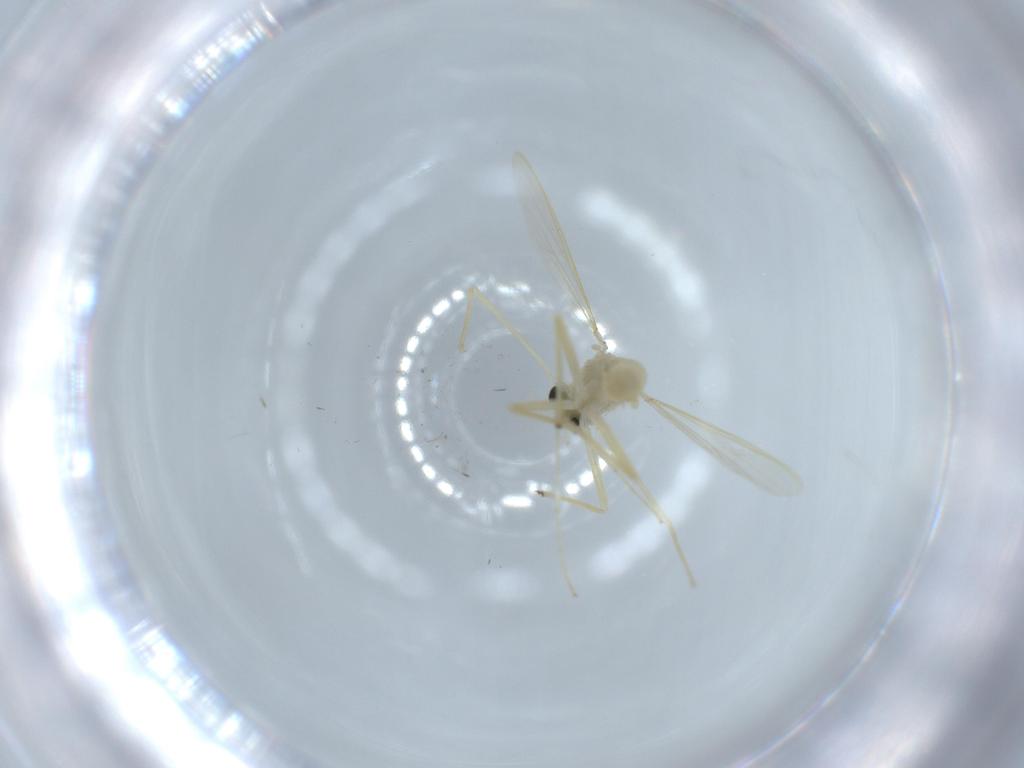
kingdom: Animalia
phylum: Arthropoda
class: Insecta
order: Diptera
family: Chironomidae
